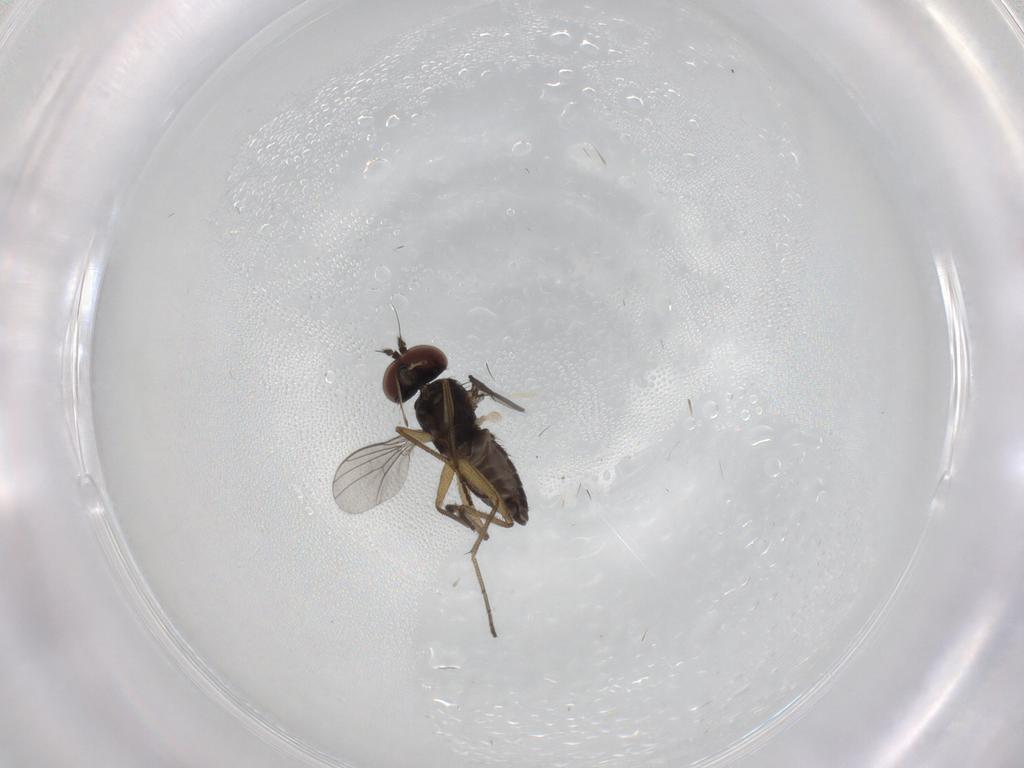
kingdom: Animalia
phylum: Arthropoda
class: Insecta
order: Diptera
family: Dolichopodidae
